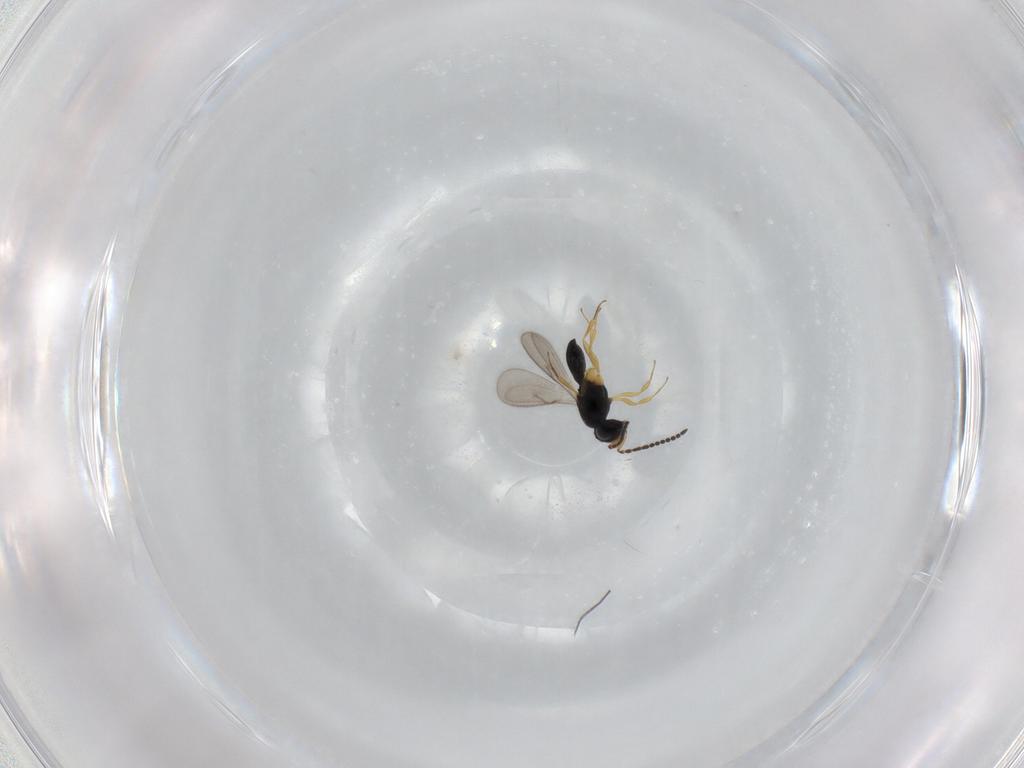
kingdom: Animalia
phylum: Arthropoda
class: Insecta
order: Hymenoptera
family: Scelionidae
